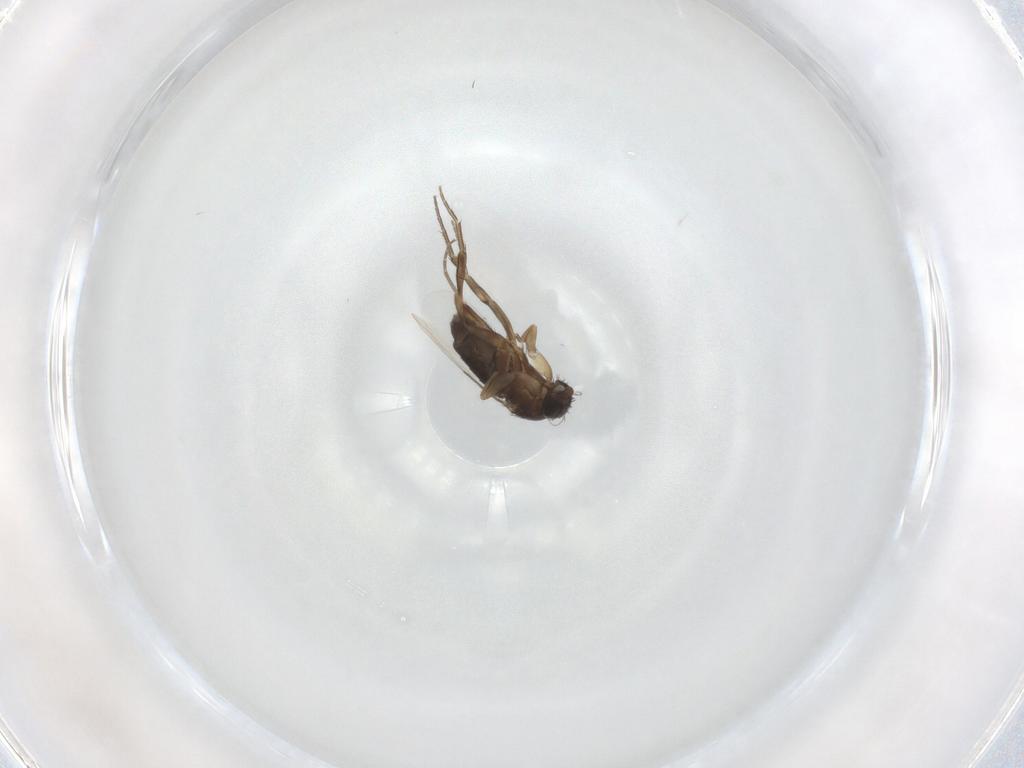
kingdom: Animalia
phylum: Arthropoda
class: Insecta
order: Diptera
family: Phoridae
